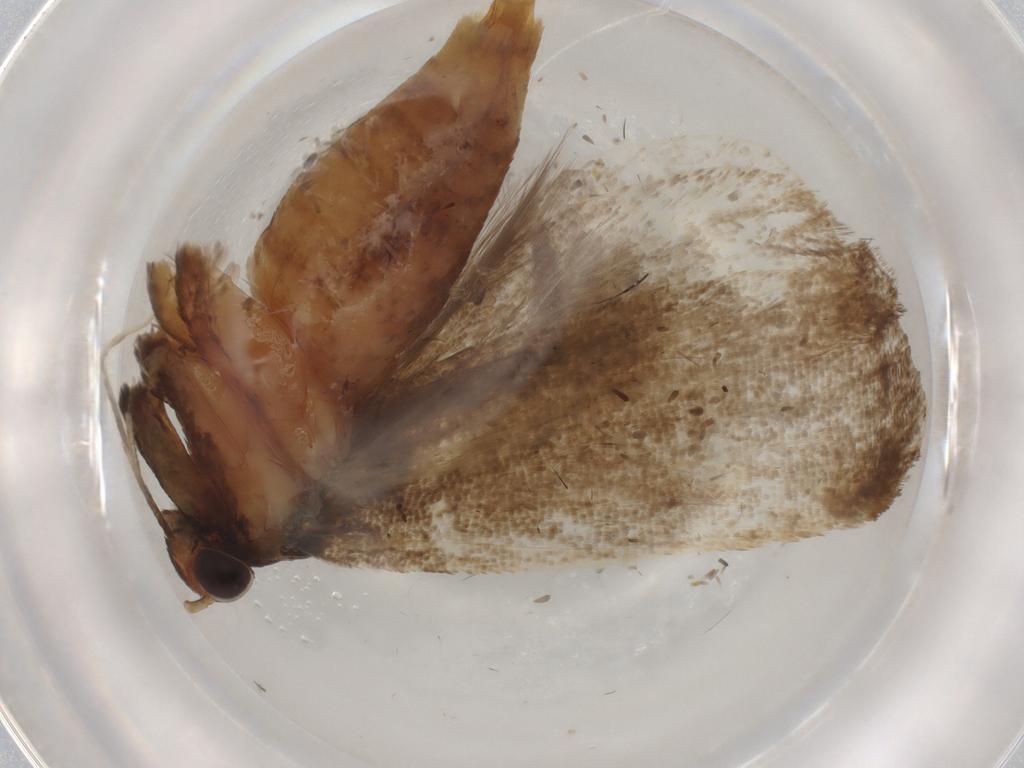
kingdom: Animalia
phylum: Arthropoda
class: Insecta
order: Lepidoptera
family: Lecithoceridae
